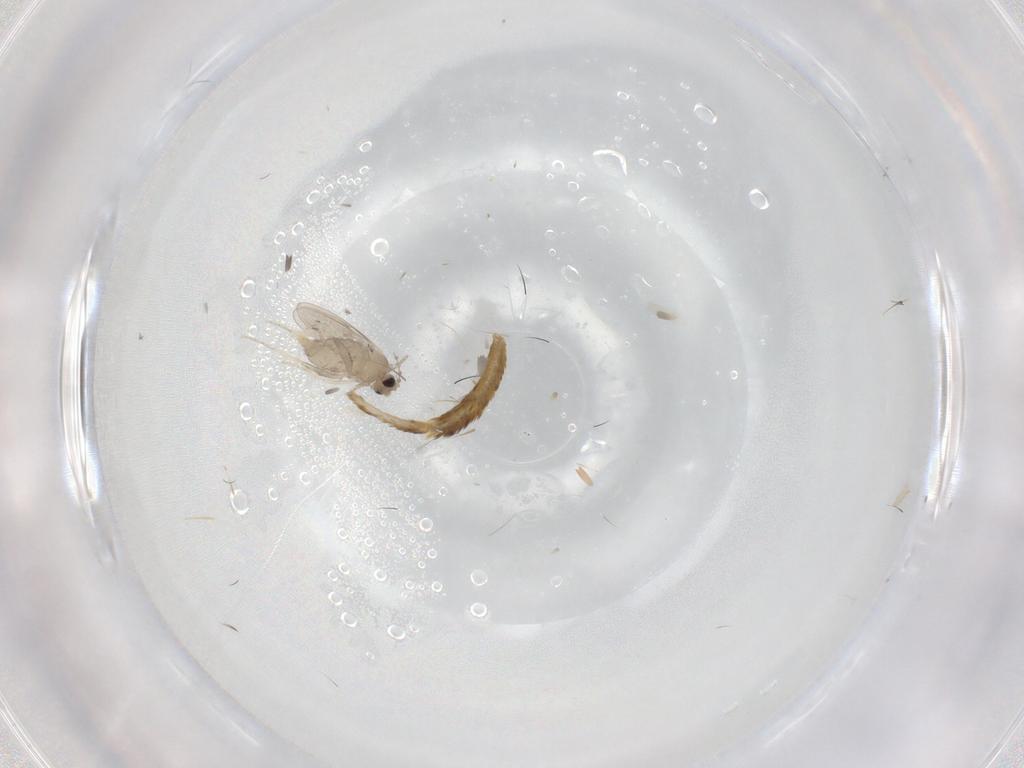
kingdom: Animalia
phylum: Arthropoda
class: Insecta
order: Diptera
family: Cecidomyiidae
